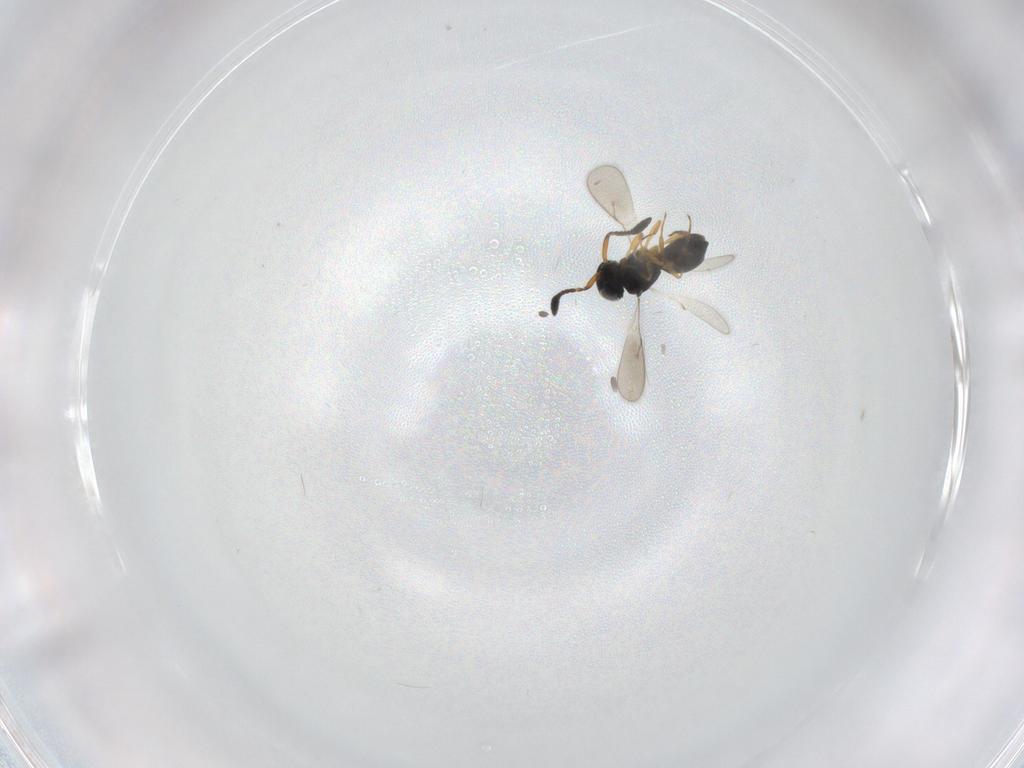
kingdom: Animalia
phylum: Arthropoda
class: Insecta
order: Hymenoptera
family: Scelionidae
